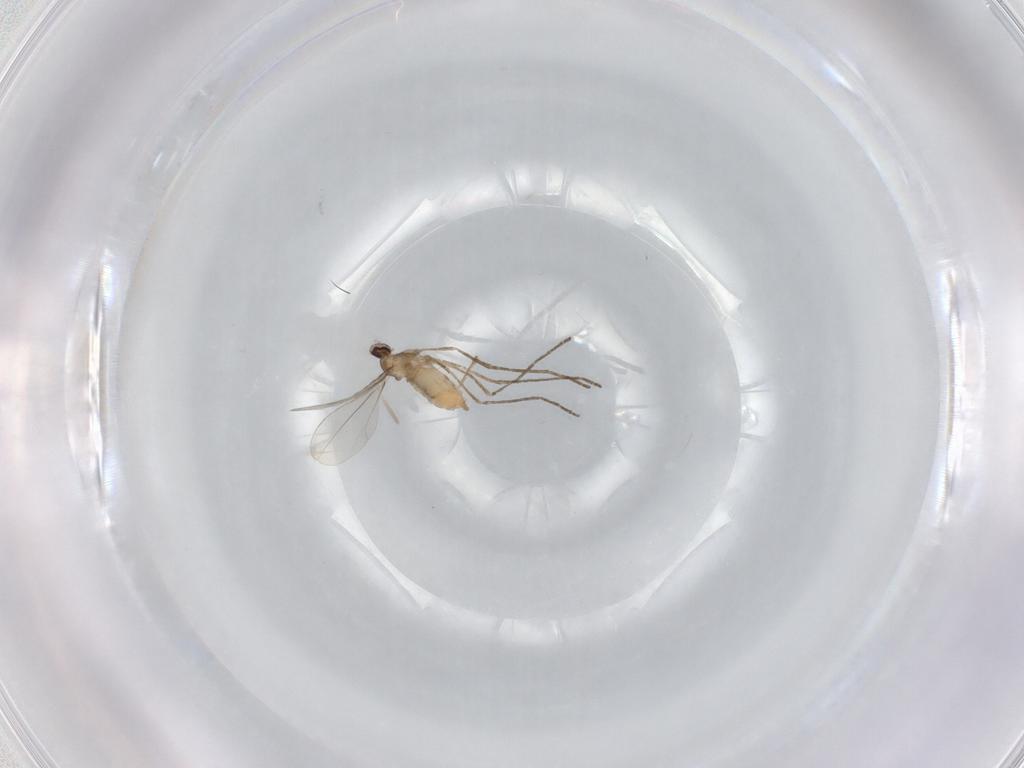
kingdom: Animalia
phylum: Arthropoda
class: Insecta
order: Diptera
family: Cecidomyiidae
